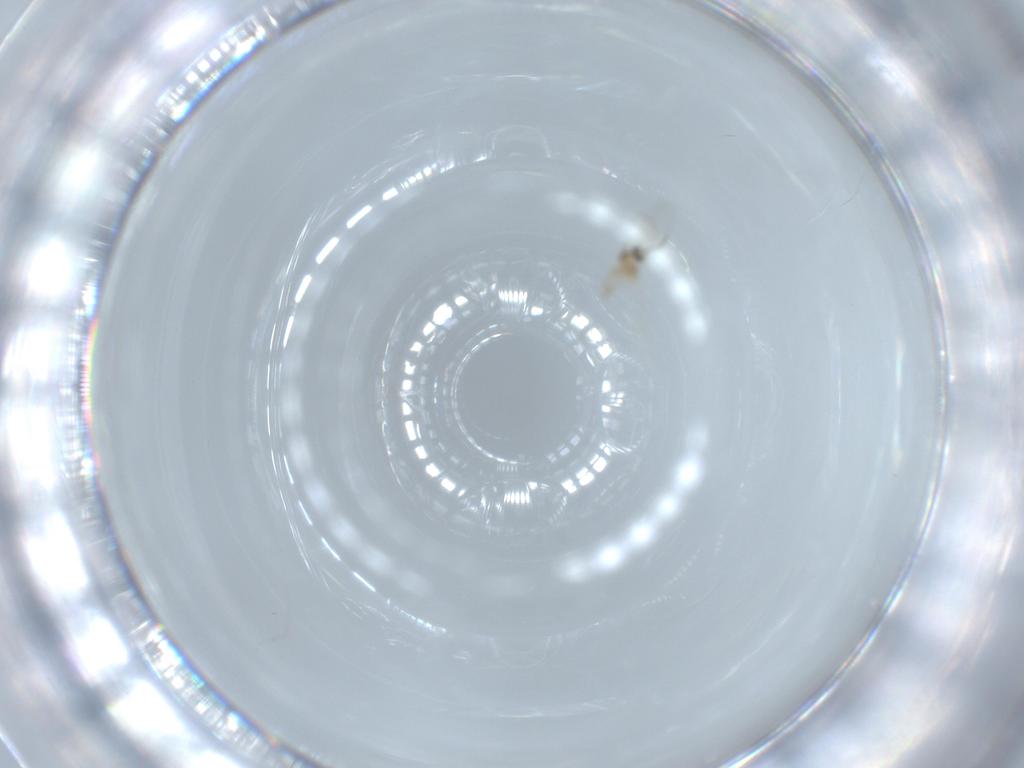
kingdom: Animalia
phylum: Arthropoda
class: Insecta
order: Diptera
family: Cecidomyiidae
